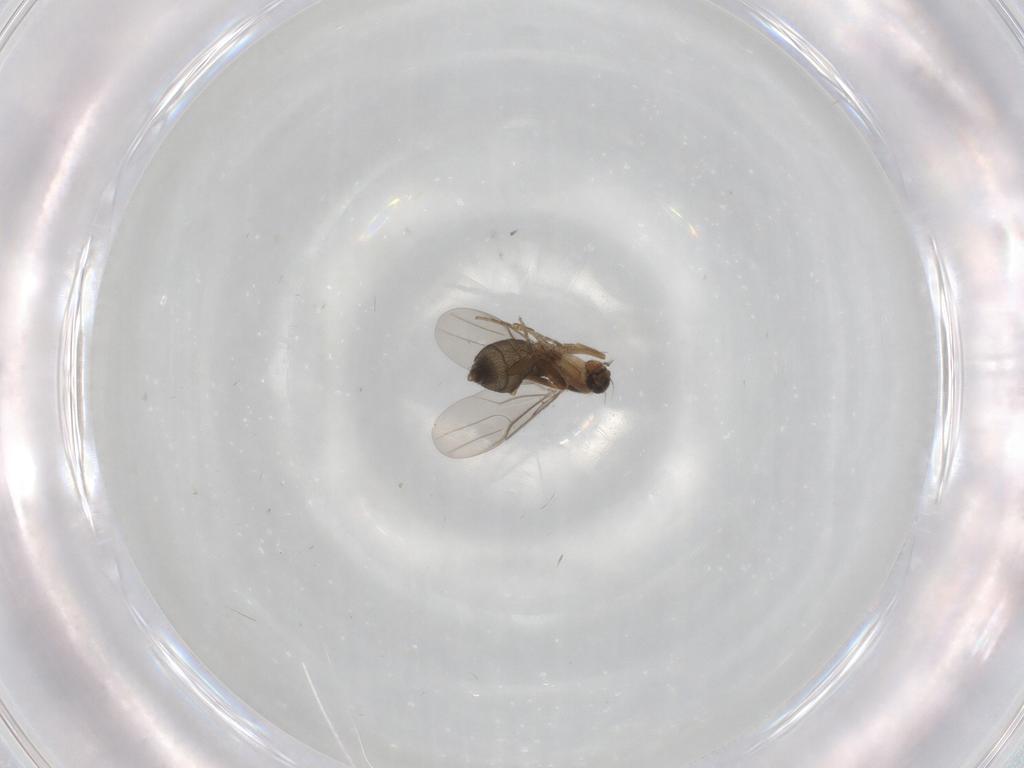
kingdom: Animalia
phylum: Arthropoda
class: Insecta
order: Diptera
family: Phoridae
